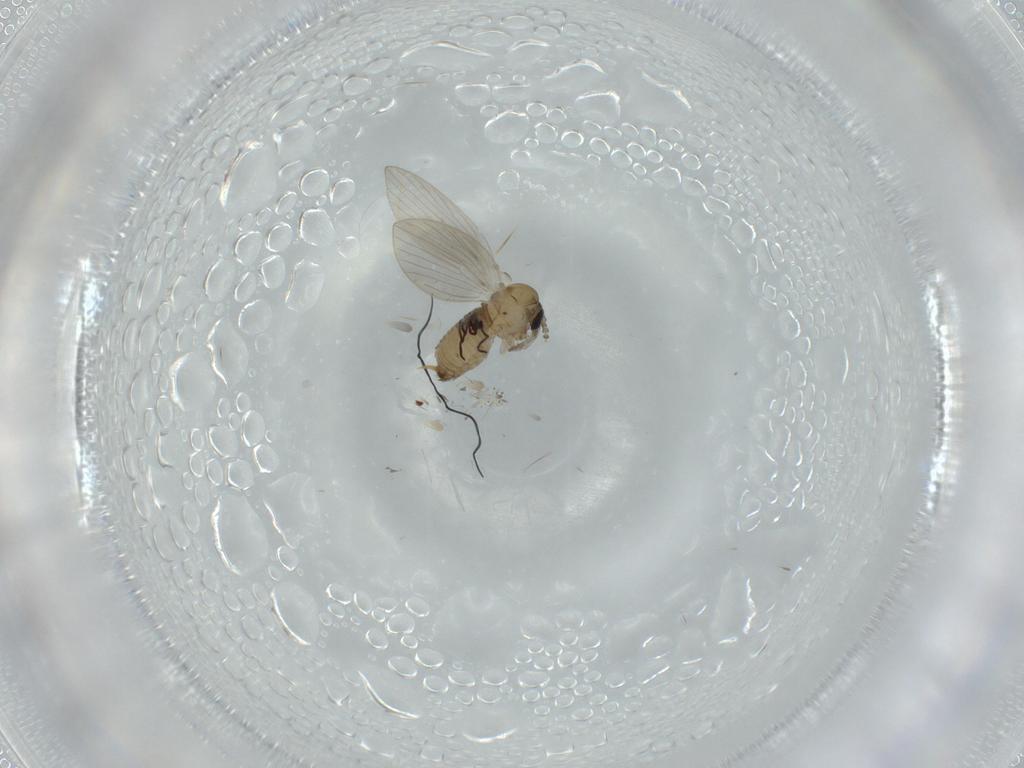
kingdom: Animalia
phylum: Arthropoda
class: Insecta
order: Diptera
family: Psychodidae
